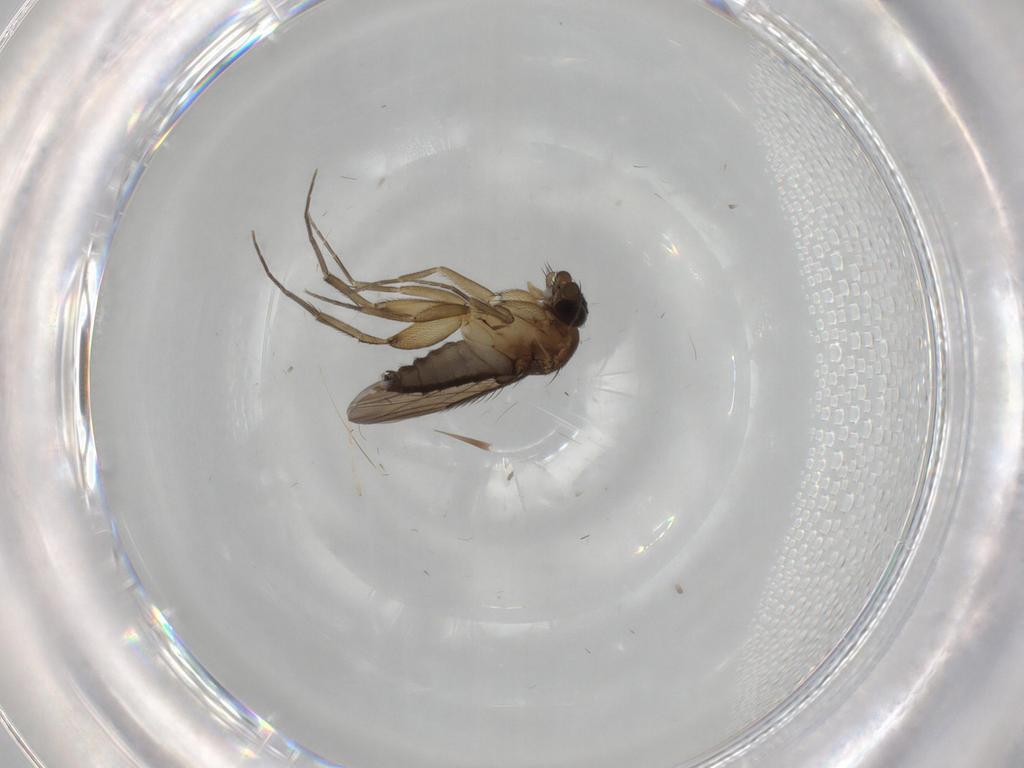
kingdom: Animalia
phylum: Arthropoda
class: Insecta
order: Diptera
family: Phoridae
